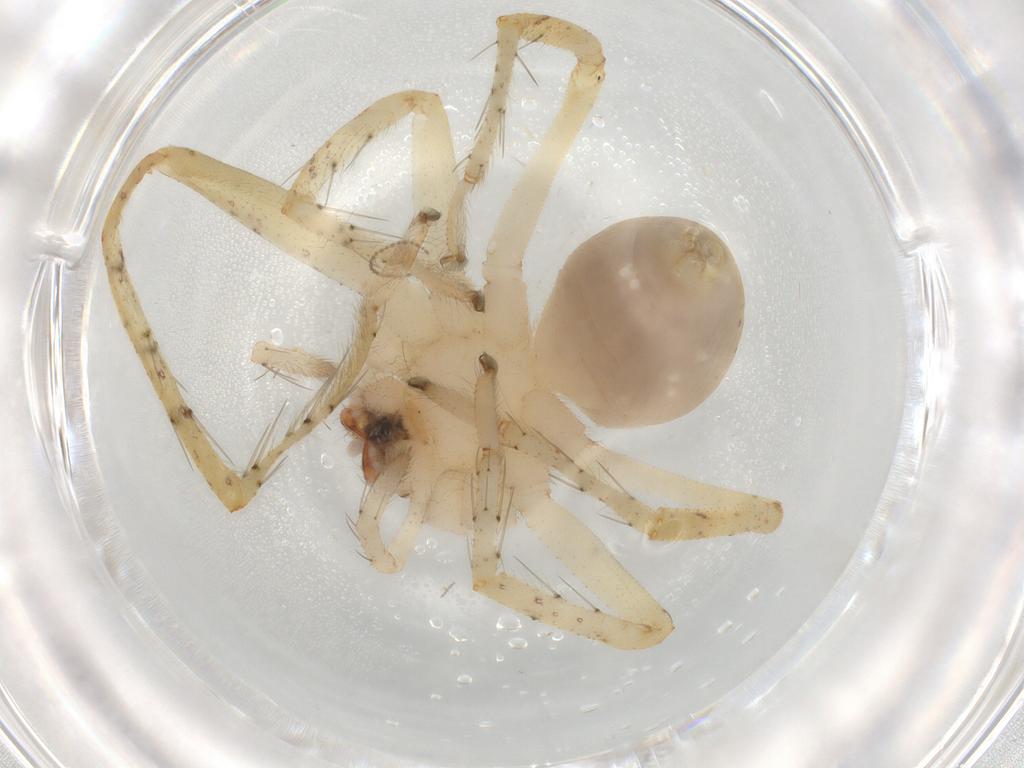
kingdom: Animalia
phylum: Arthropoda
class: Arachnida
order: Araneae
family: Sparassidae
